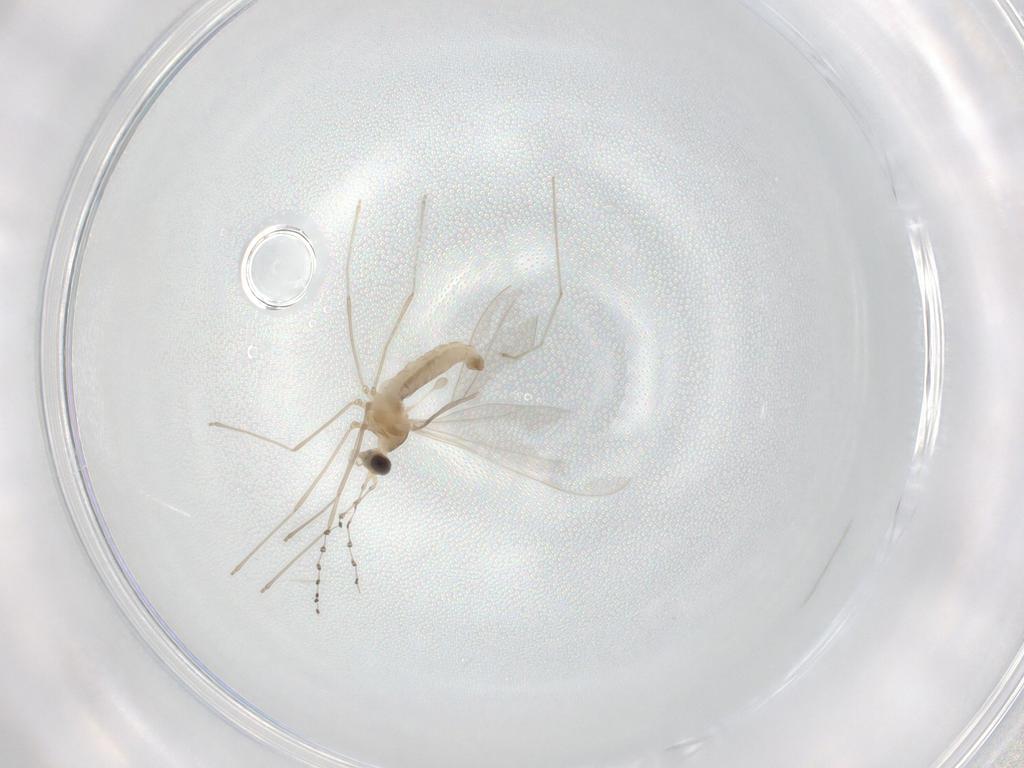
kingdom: Animalia
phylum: Arthropoda
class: Insecta
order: Diptera
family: Cecidomyiidae
